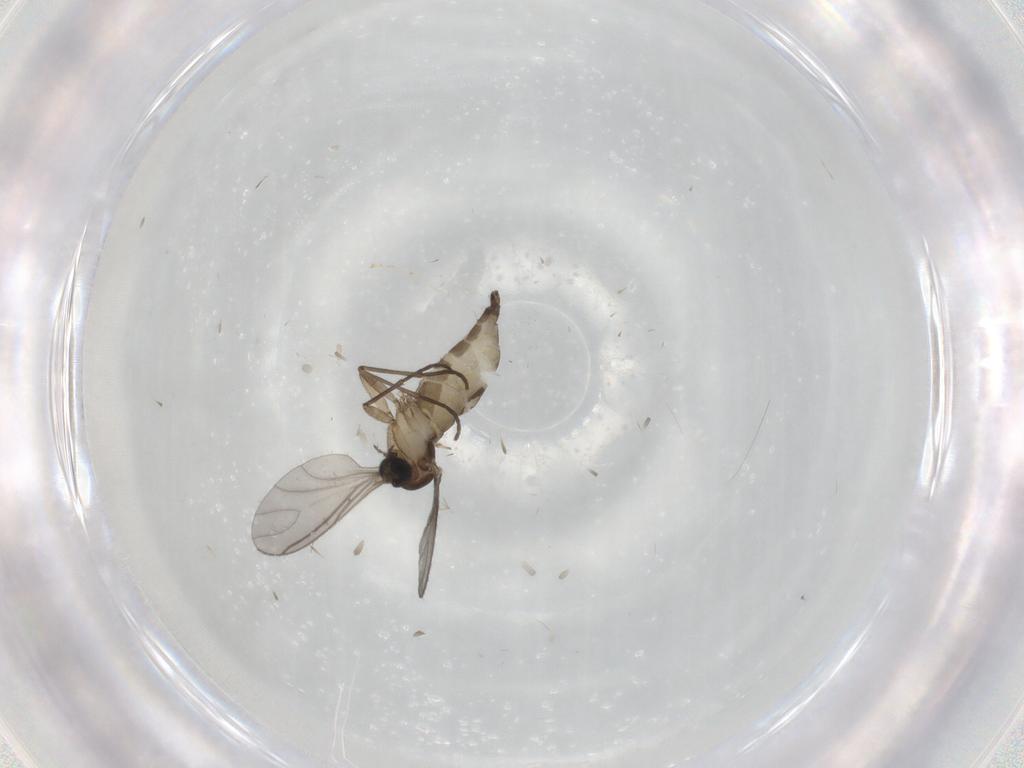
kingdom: Animalia
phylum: Arthropoda
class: Insecta
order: Diptera
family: Sciaridae
